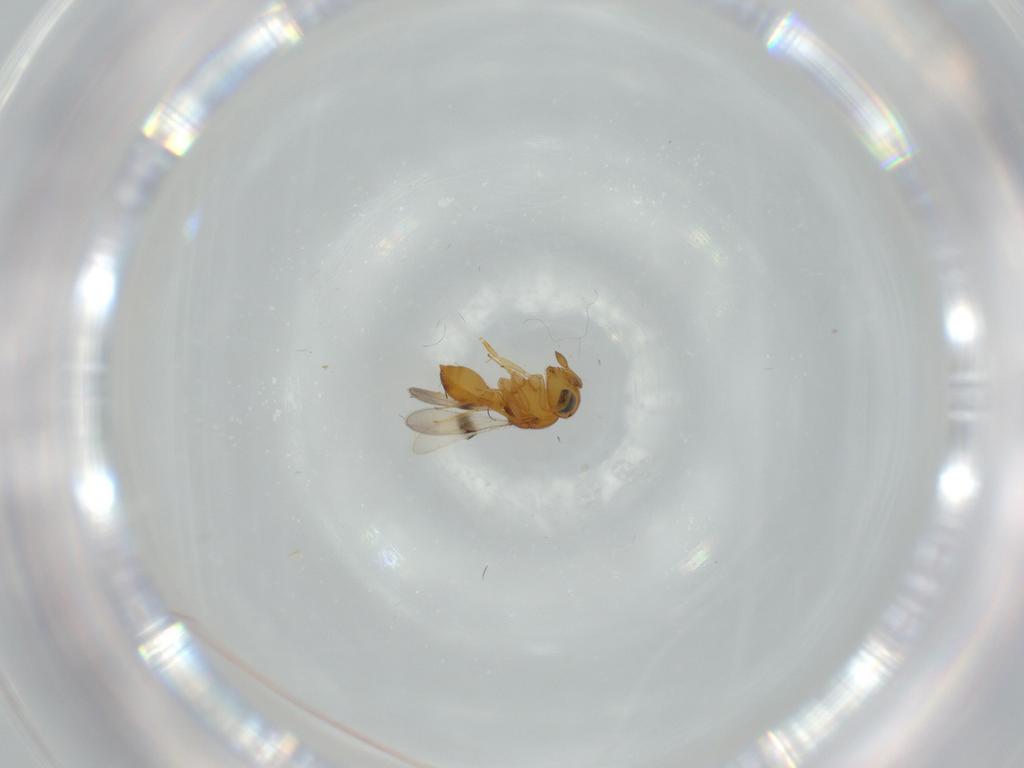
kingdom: Animalia
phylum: Arthropoda
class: Insecta
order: Hymenoptera
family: Scelionidae
